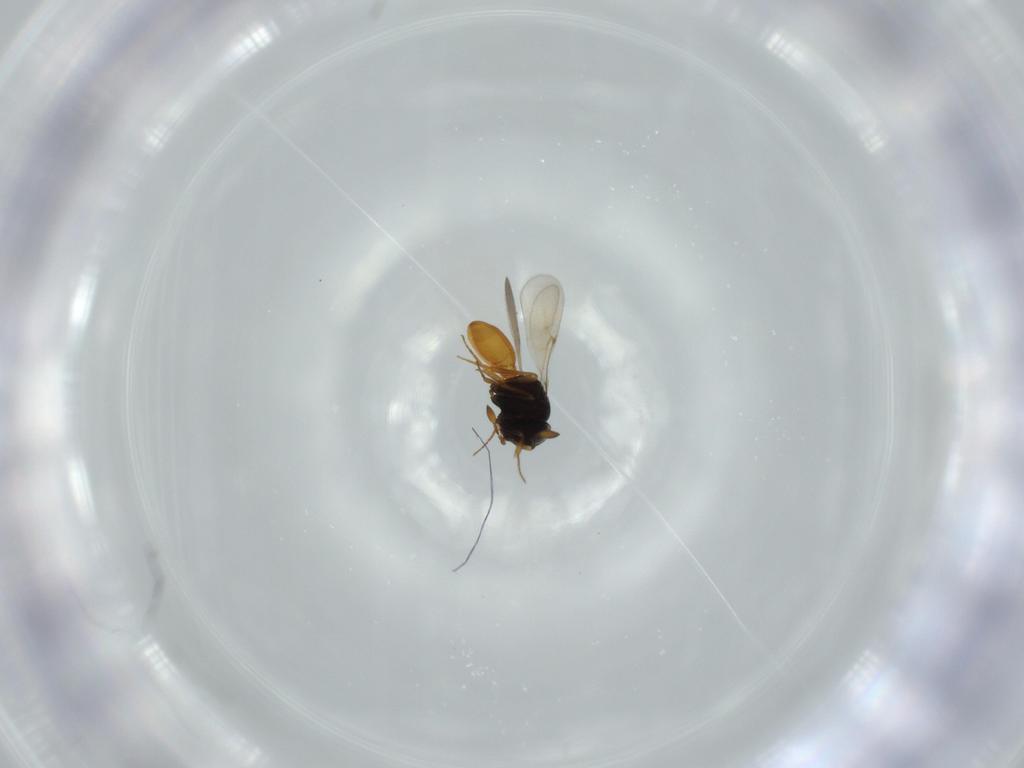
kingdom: Animalia
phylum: Arthropoda
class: Insecta
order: Hymenoptera
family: Scelionidae
